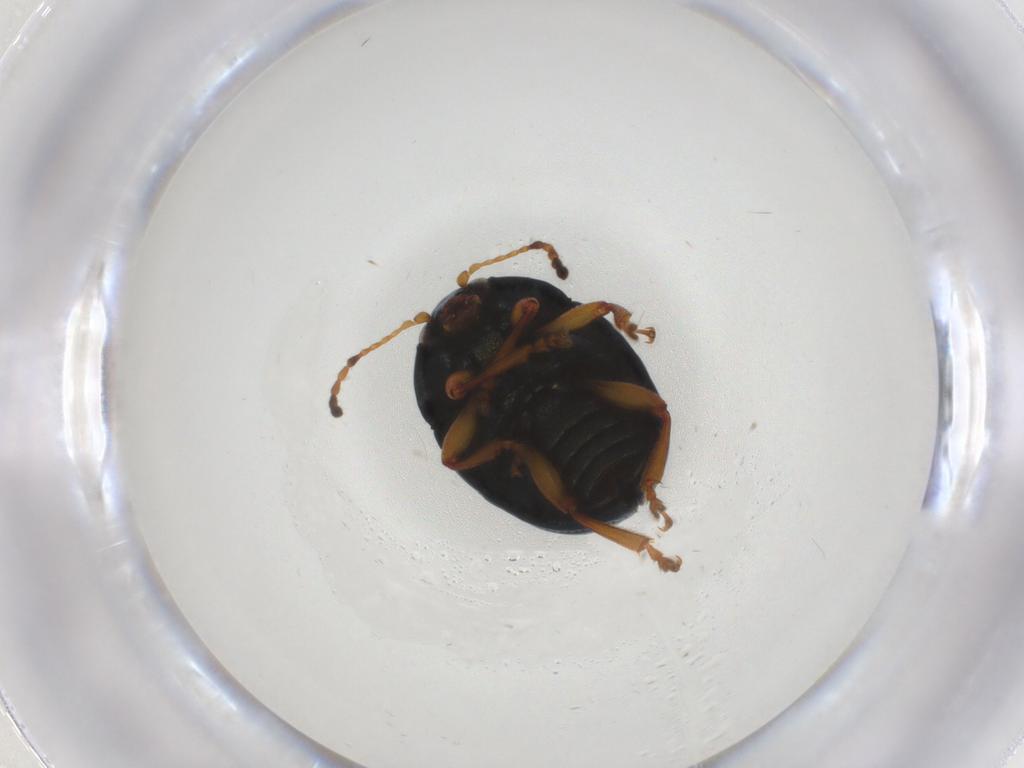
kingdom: Animalia
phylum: Arthropoda
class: Insecta
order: Coleoptera
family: Chrysomelidae
